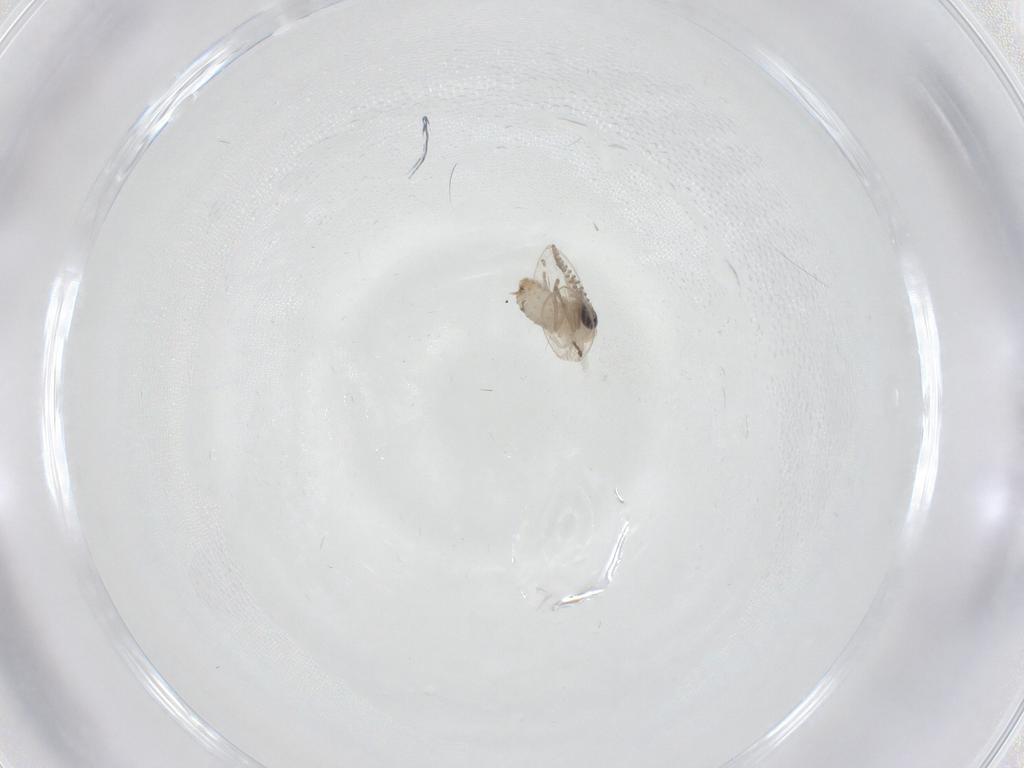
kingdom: Animalia
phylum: Arthropoda
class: Insecta
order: Diptera
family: Psychodidae
